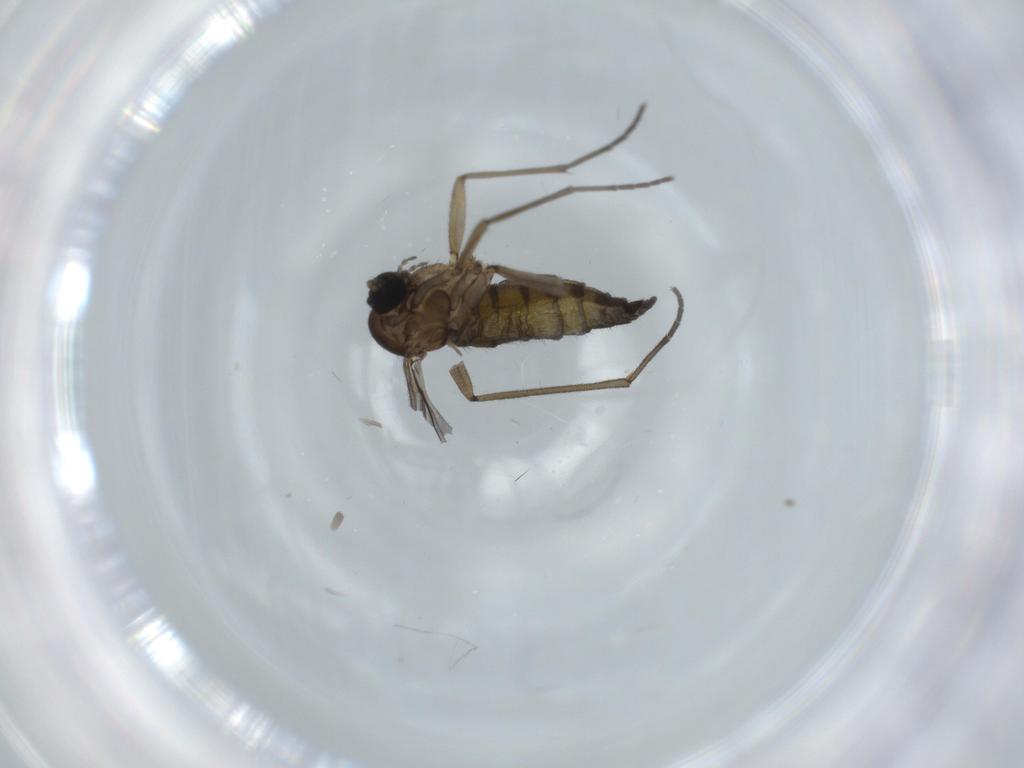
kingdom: Animalia
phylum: Arthropoda
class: Insecta
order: Diptera
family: Sciaridae
